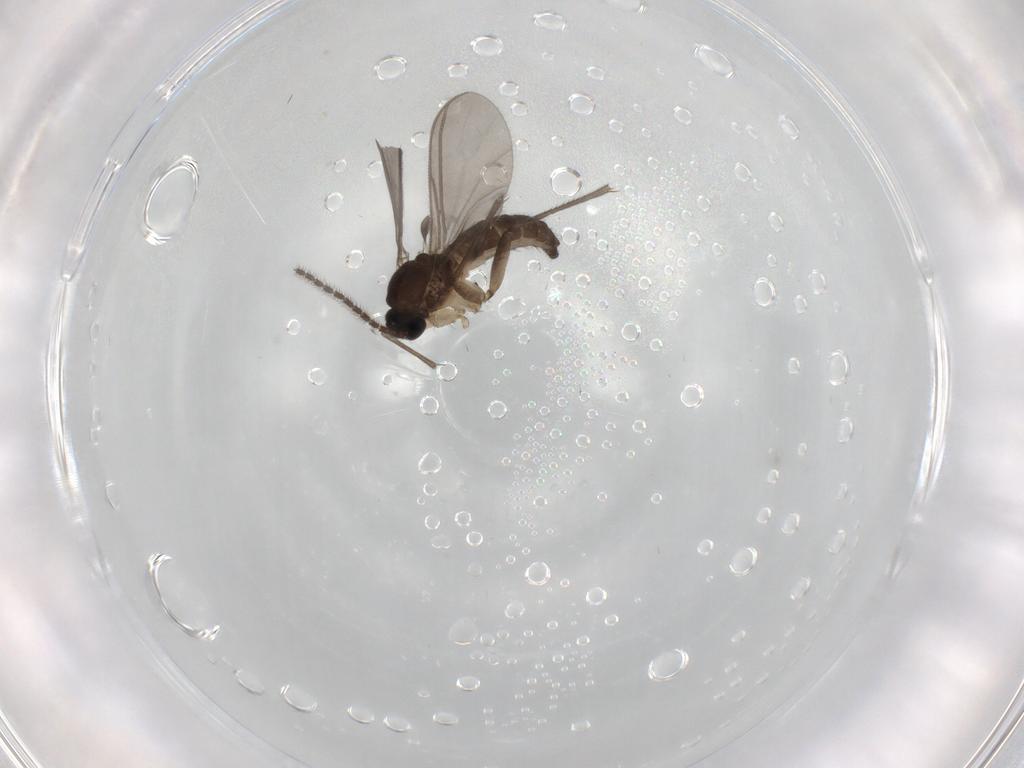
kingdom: Animalia
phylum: Arthropoda
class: Insecta
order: Diptera
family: Sciaridae
